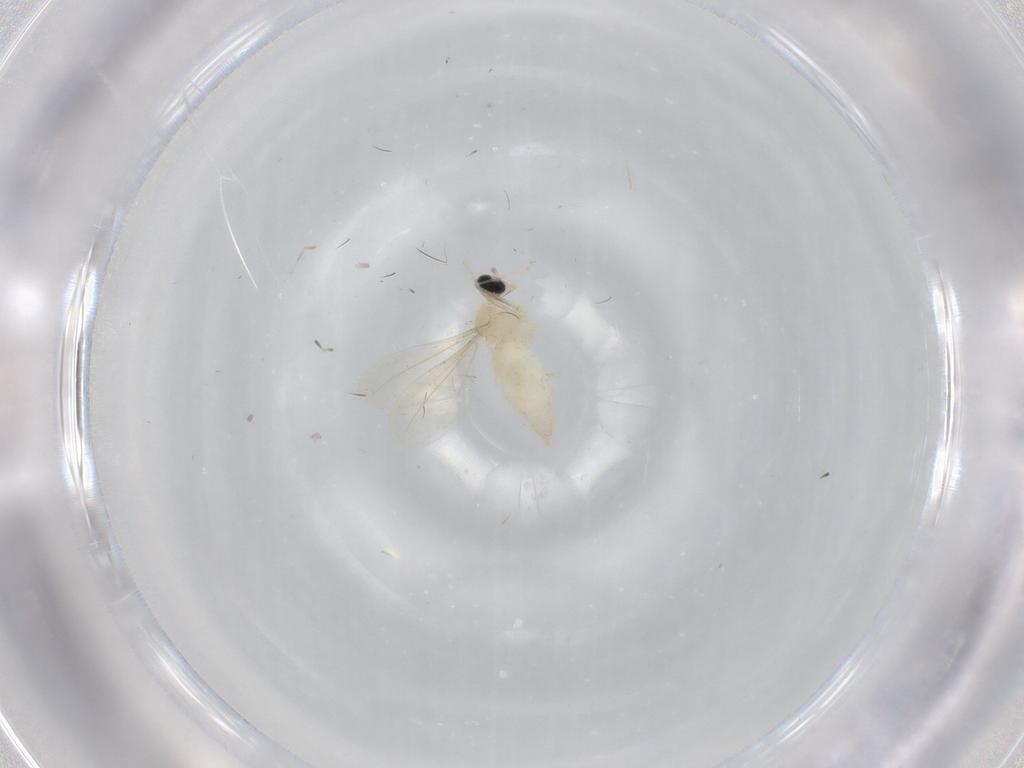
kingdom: Animalia
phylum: Arthropoda
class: Insecta
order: Diptera
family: Cecidomyiidae
